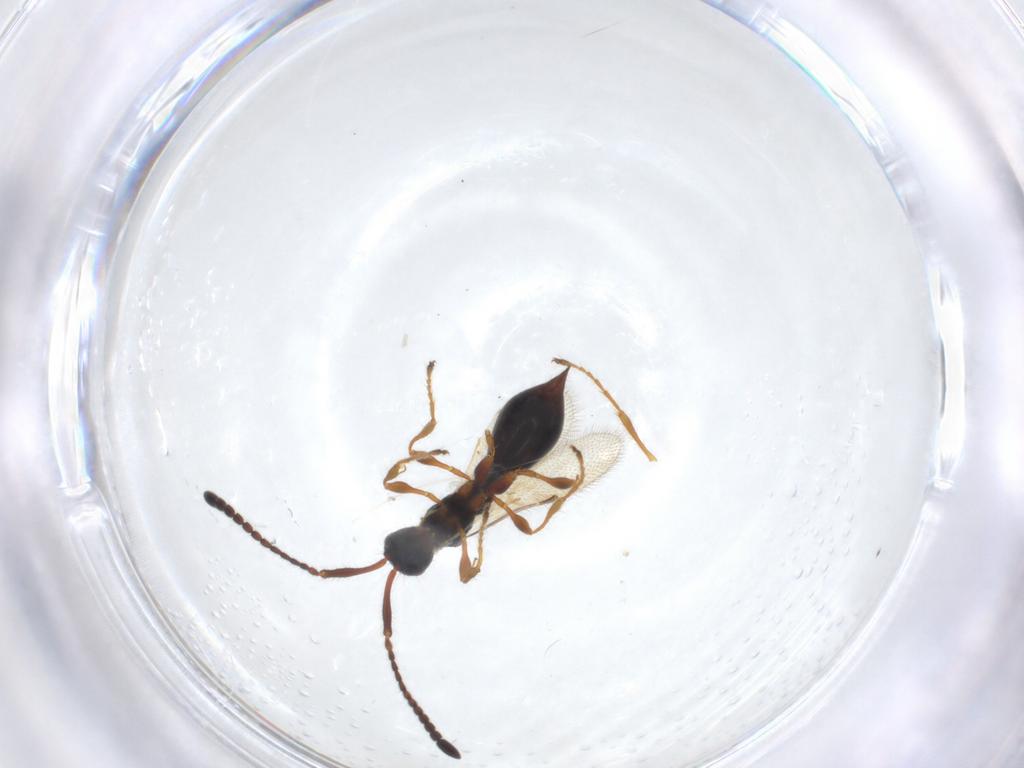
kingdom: Animalia
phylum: Arthropoda
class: Insecta
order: Hymenoptera
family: Diapriidae
